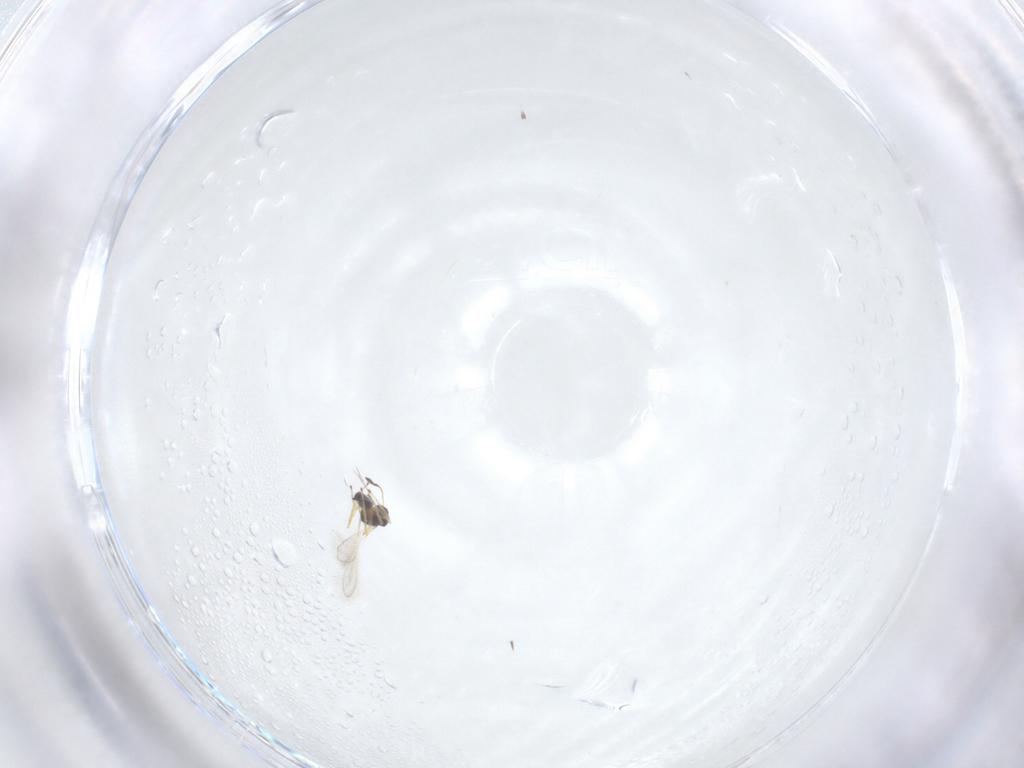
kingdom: Animalia
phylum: Arthropoda
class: Insecta
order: Hymenoptera
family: Mymaridae
